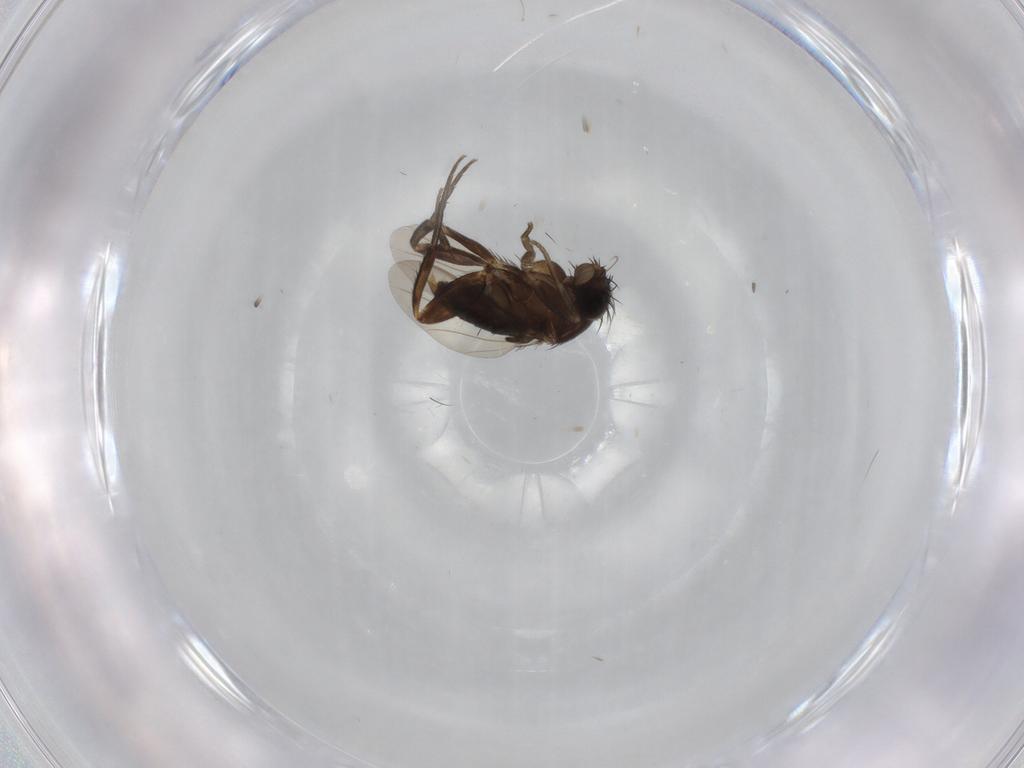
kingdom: Animalia
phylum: Arthropoda
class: Insecta
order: Diptera
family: Phoridae
